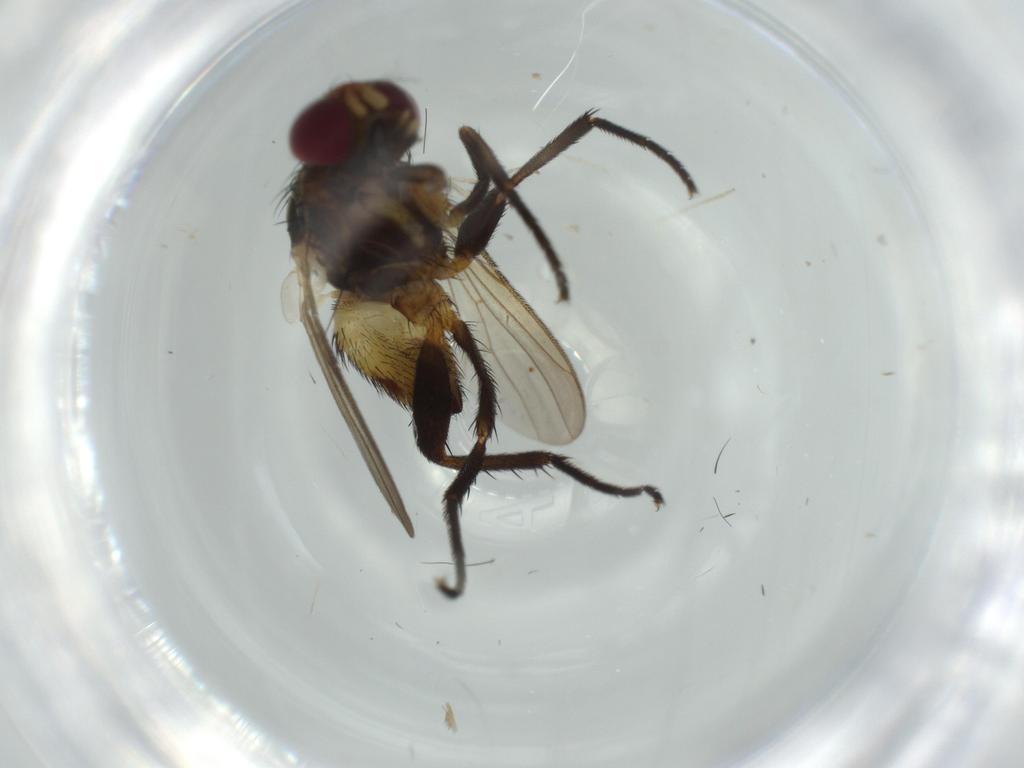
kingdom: Animalia
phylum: Arthropoda
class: Insecta
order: Diptera
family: Anthomyiidae
